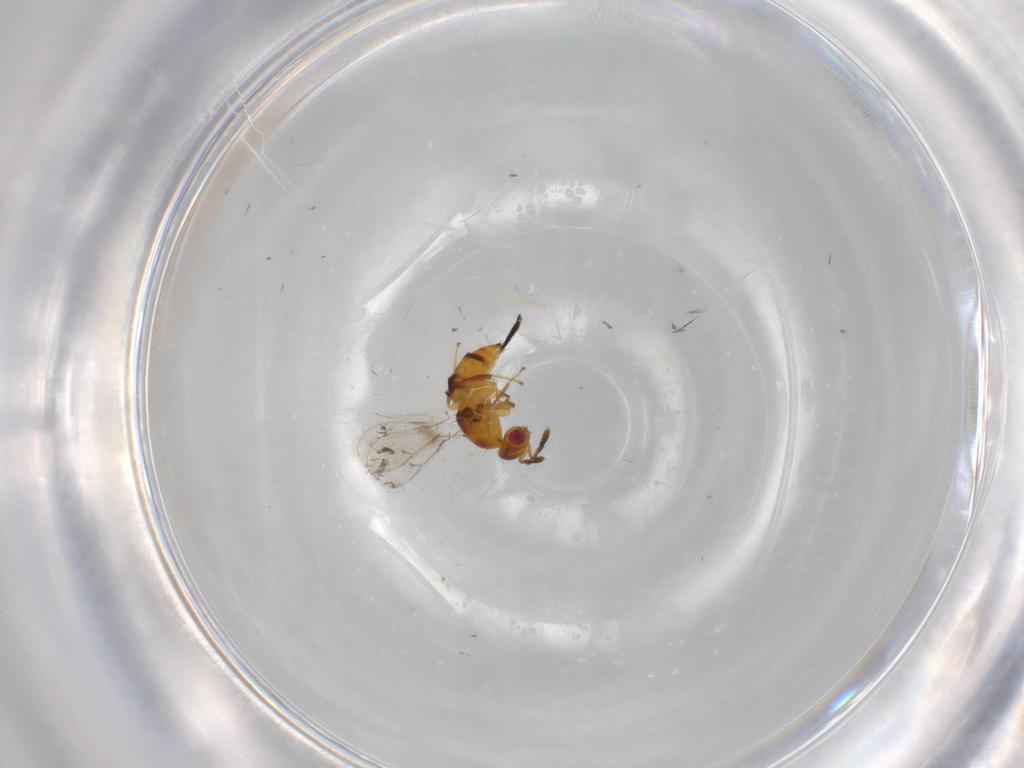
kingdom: Animalia
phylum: Arthropoda
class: Insecta
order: Hymenoptera
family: Torymidae
